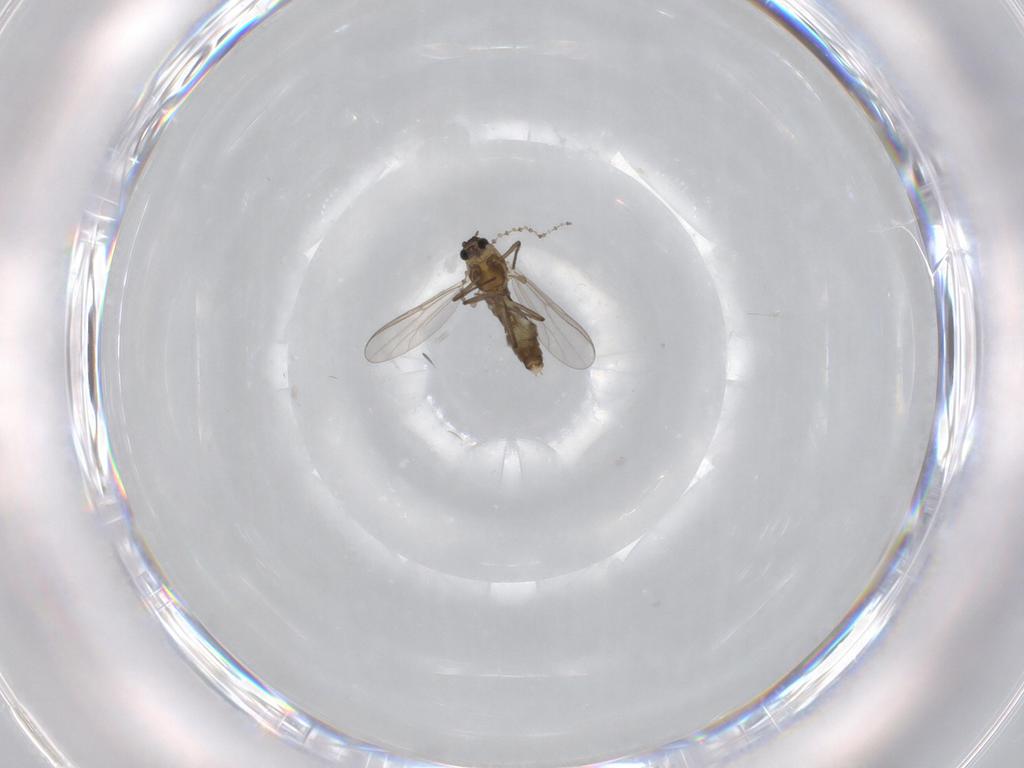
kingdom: Animalia
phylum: Arthropoda
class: Insecta
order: Diptera
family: Chironomidae
